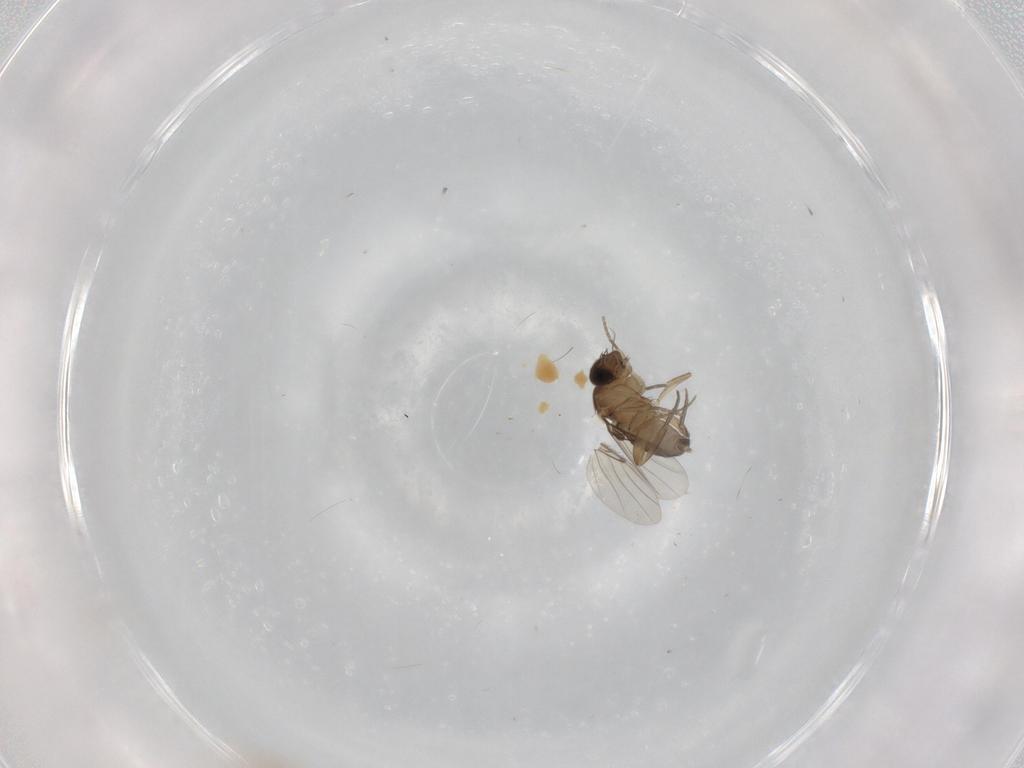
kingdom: Animalia
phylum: Arthropoda
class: Insecta
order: Diptera
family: Phoridae
